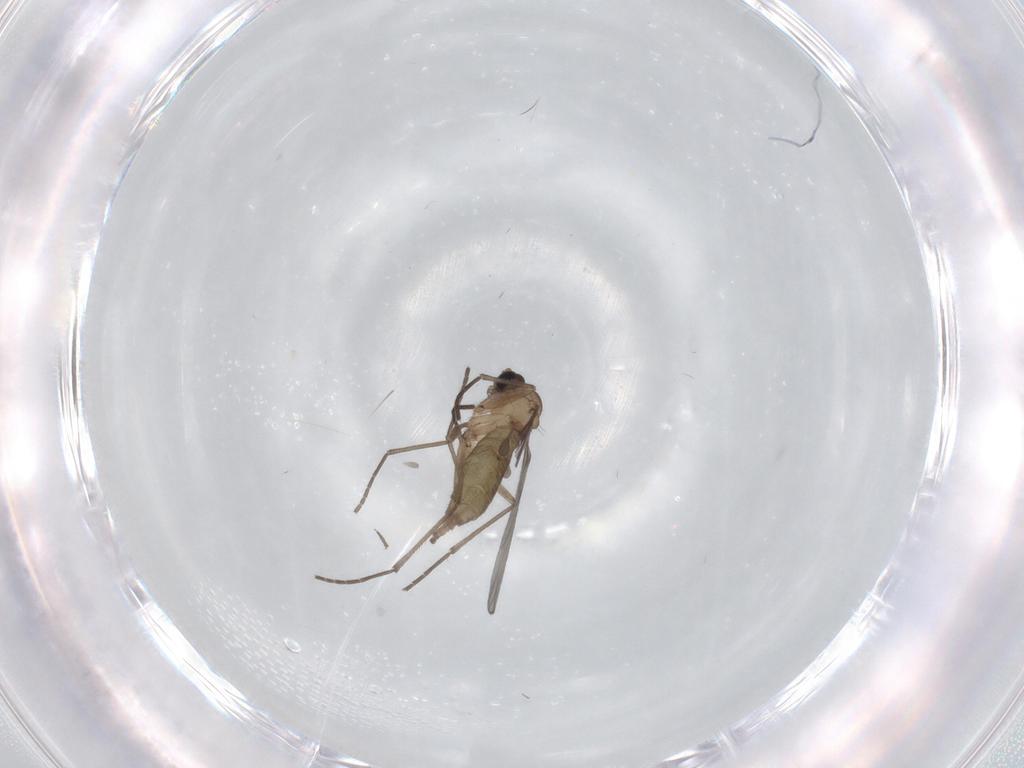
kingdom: Animalia
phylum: Arthropoda
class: Insecta
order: Diptera
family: Sciaridae
